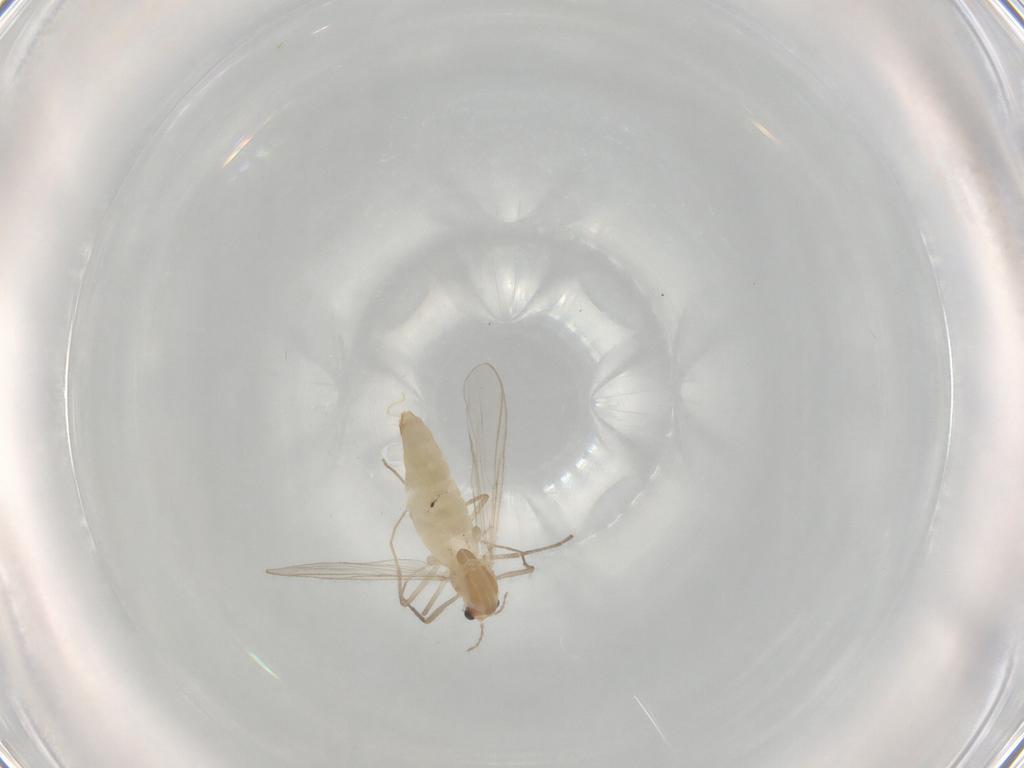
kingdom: Animalia
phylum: Arthropoda
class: Insecta
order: Diptera
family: Chironomidae
